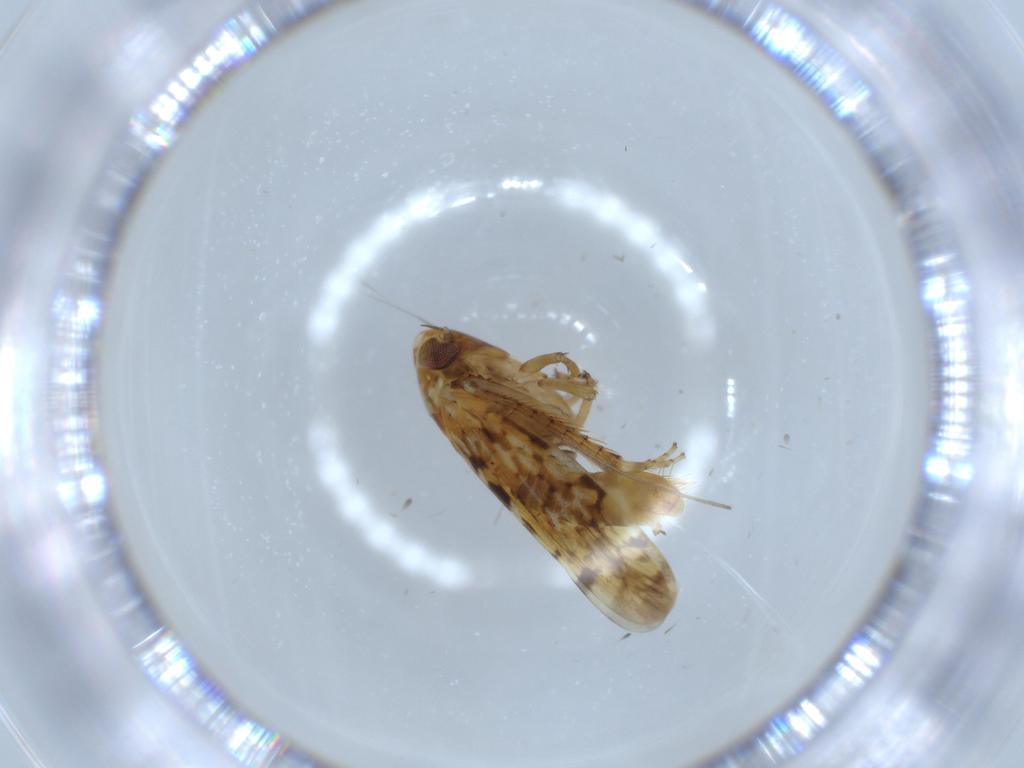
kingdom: Animalia
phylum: Arthropoda
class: Insecta
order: Hemiptera
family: Cicadellidae
